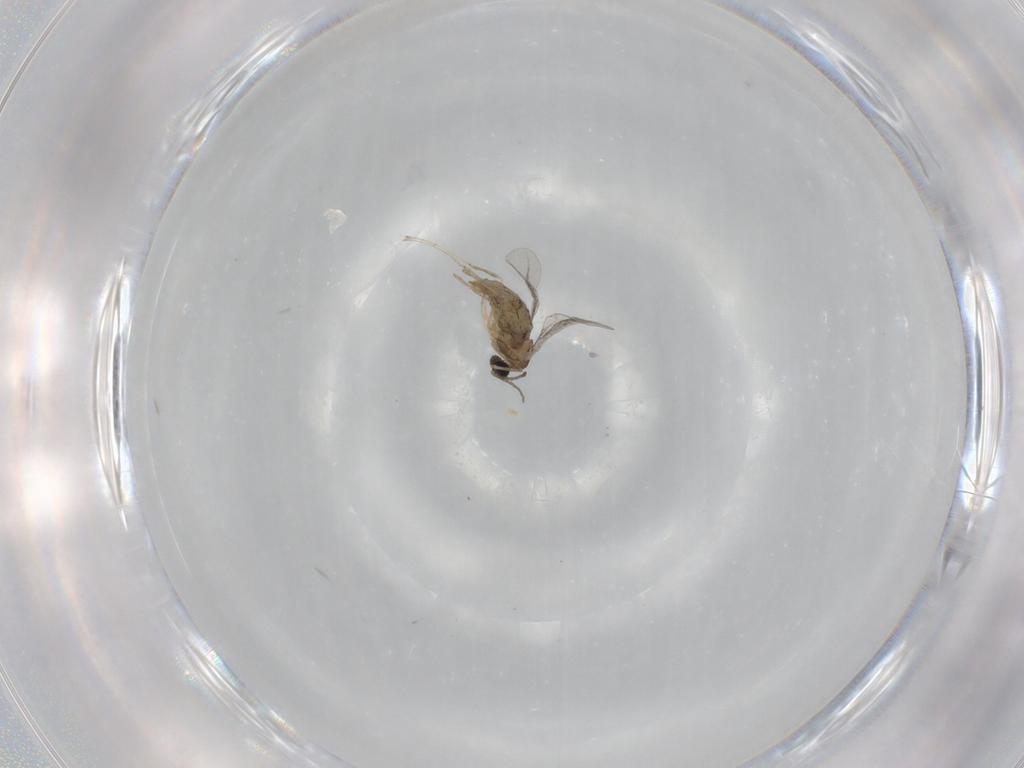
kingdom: Animalia
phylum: Arthropoda
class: Insecta
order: Diptera
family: Cecidomyiidae
